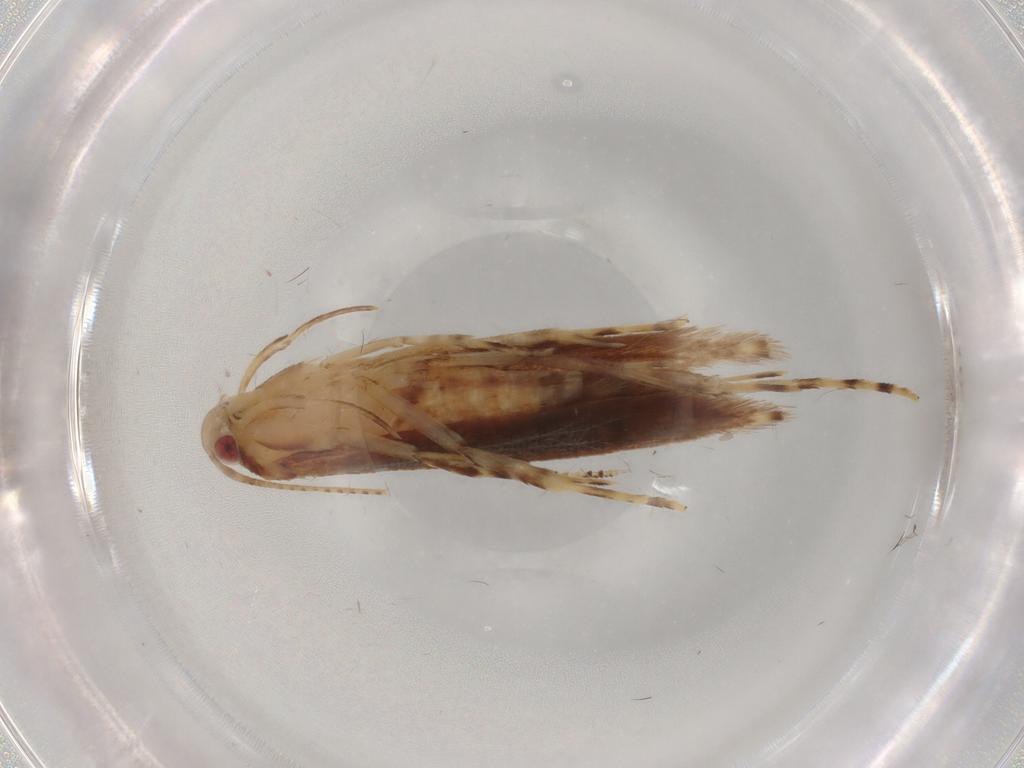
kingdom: Animalia
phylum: Arthropoda
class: Insecta
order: Lepidoptera
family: Cosmopterigidae
